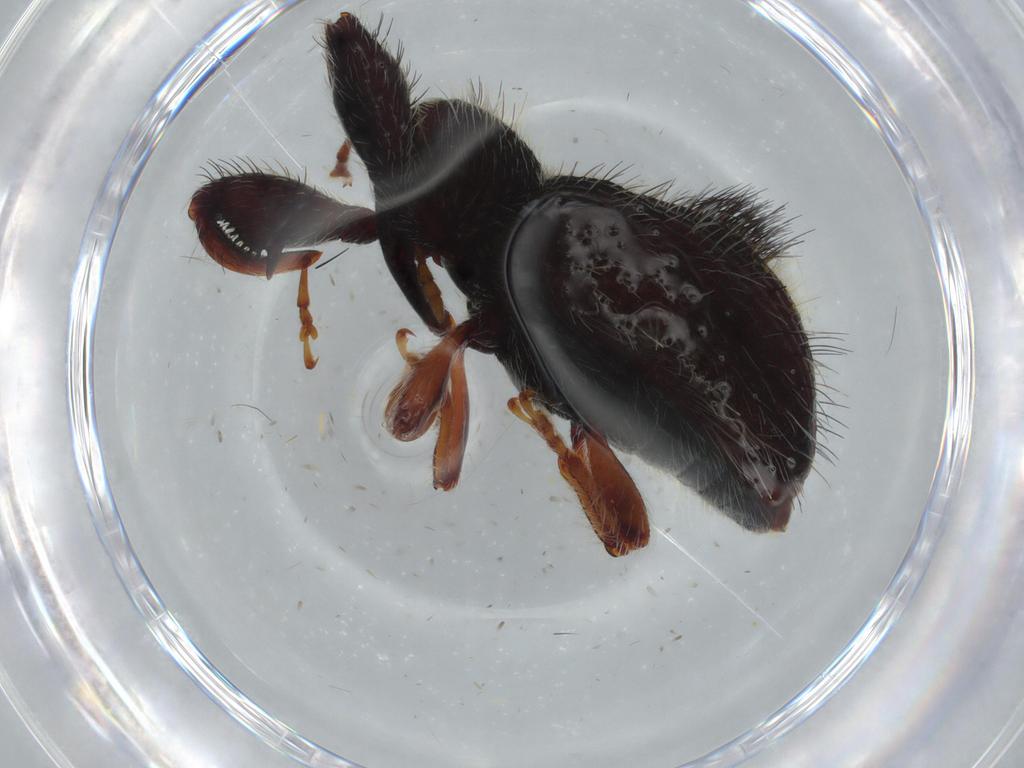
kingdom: Animalia
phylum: Arthropoda
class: Insecta
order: Coleoptera
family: Curculionidae
